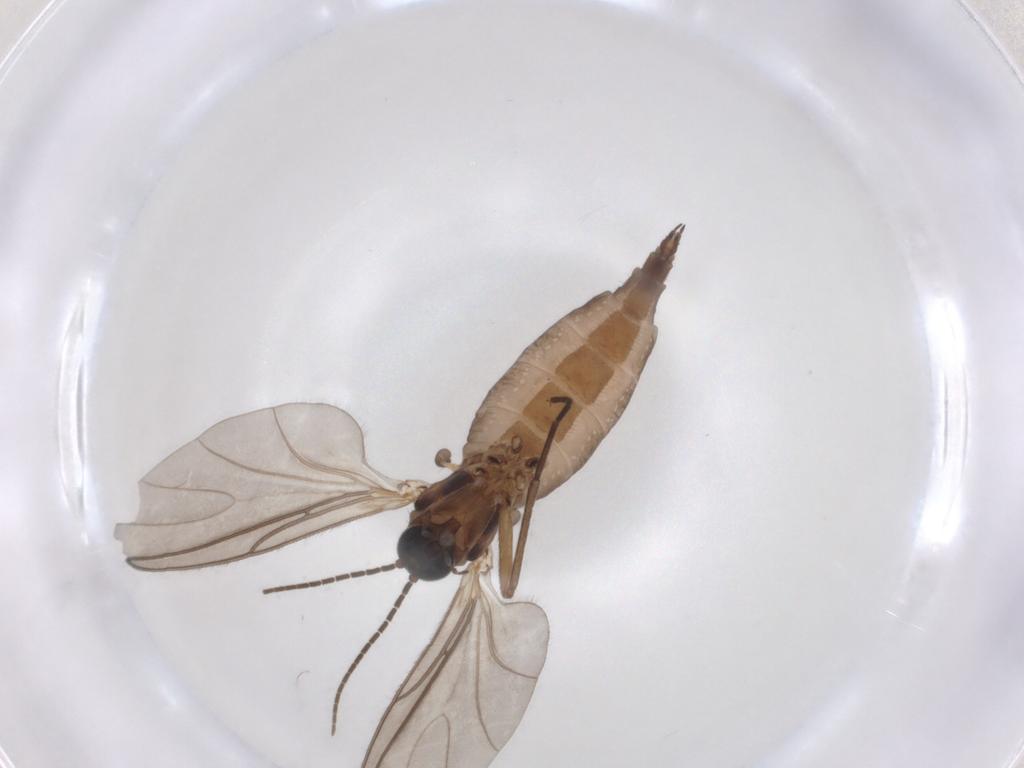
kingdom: Animalia
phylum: Arthropoda
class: Insecta
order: Diptera
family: Sciaridae
